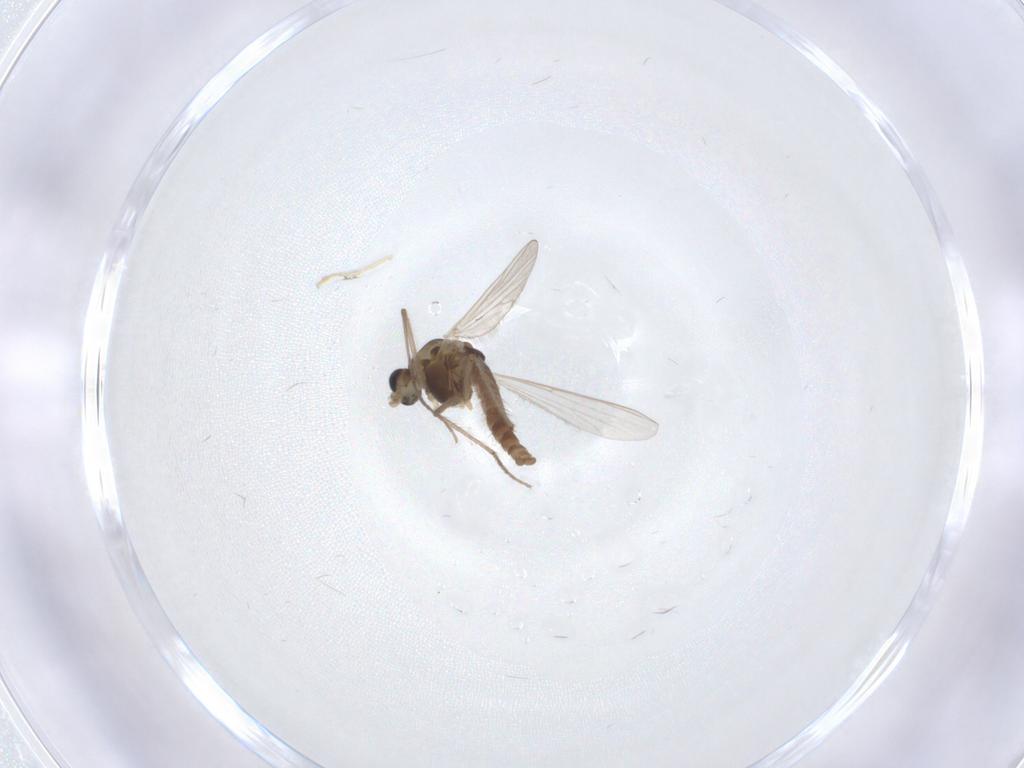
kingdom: Animalia
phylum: Arthropoda
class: Insecta
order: Diptera
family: Chironomidae
